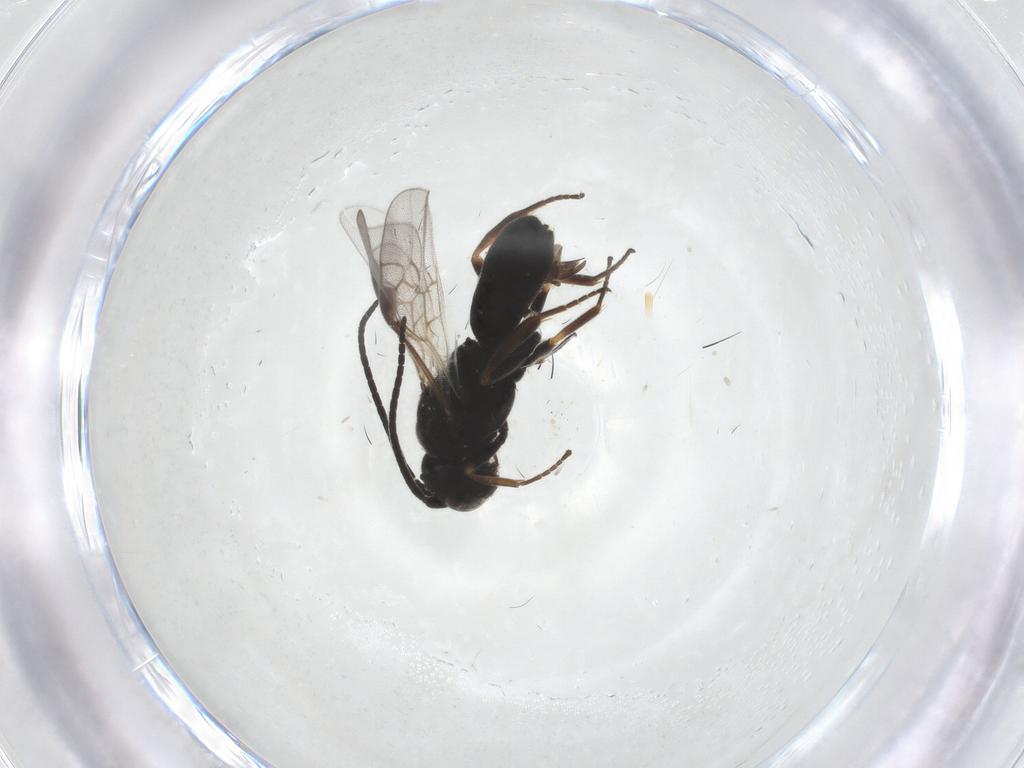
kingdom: Animalia
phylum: Arthropoda
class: Insecta
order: Hymenoptera
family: Braconidae
